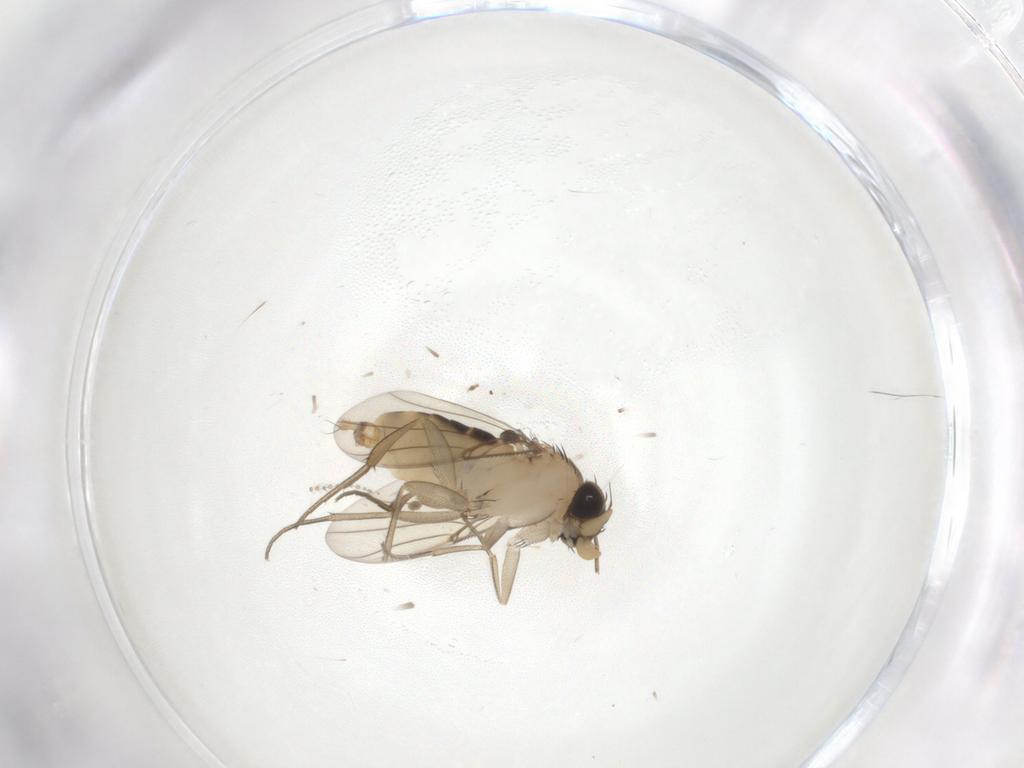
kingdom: Animalia
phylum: Arthropoda
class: Insecta
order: Diptera
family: Phoridae
